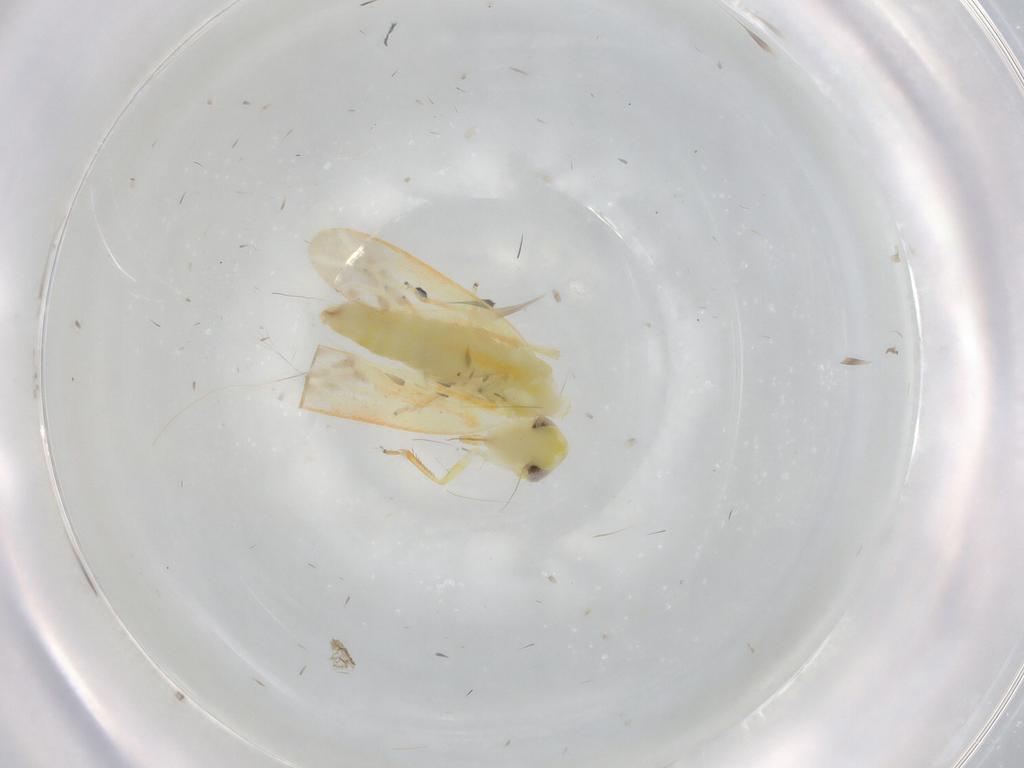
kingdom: Animalia
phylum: Arthropoda
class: Insecta
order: Hemiptera
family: Cicadellidae
